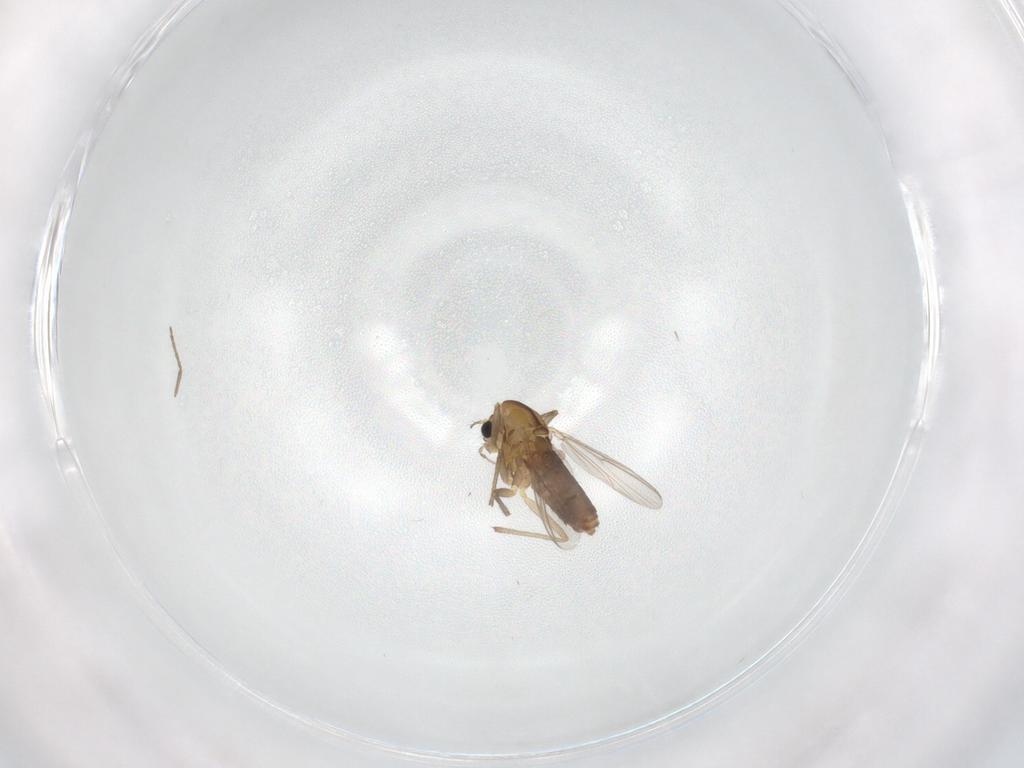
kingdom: Animalia
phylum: Arthropoda
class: Insecta
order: Diptera
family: Chironomidae
